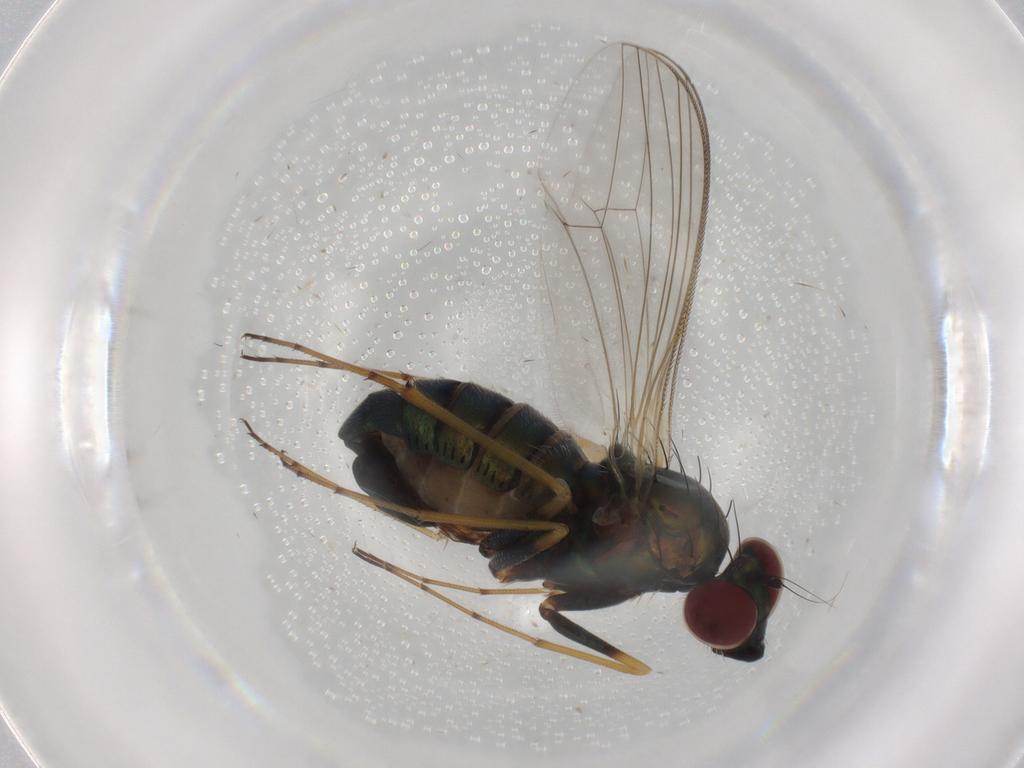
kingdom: Animalia
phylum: Arthropoda
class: Insecta
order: Diptera
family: Dolichopodidae
